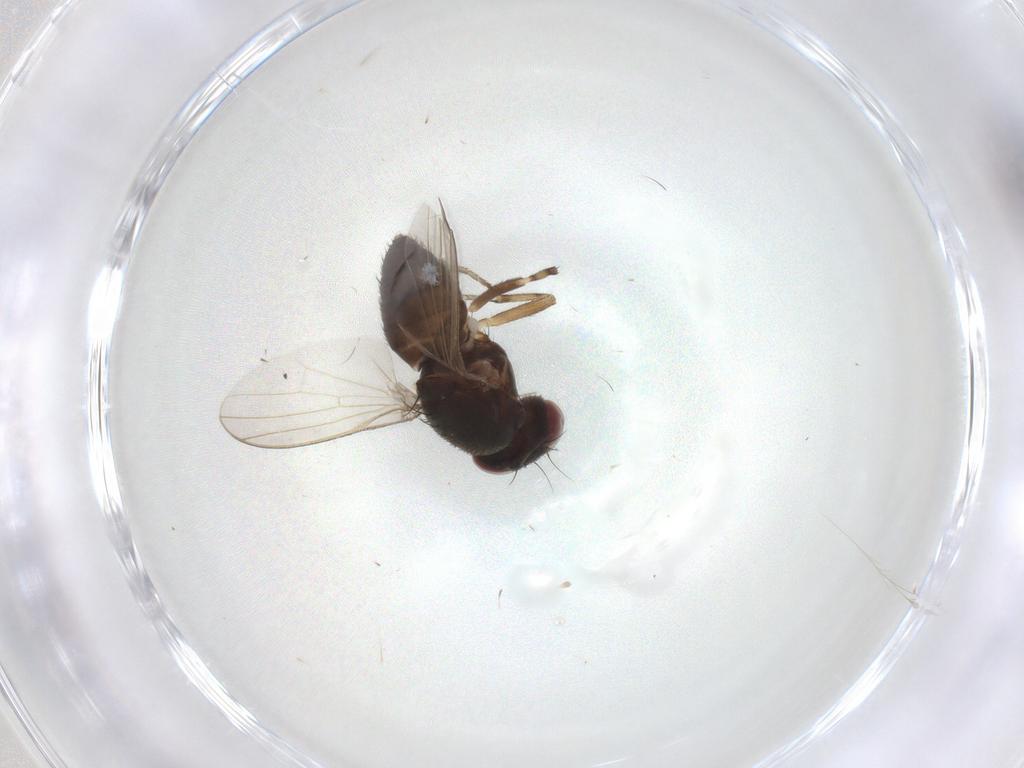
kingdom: Animalia
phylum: Arthropoda
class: Insecta
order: Diptera
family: Heleomyzidae
